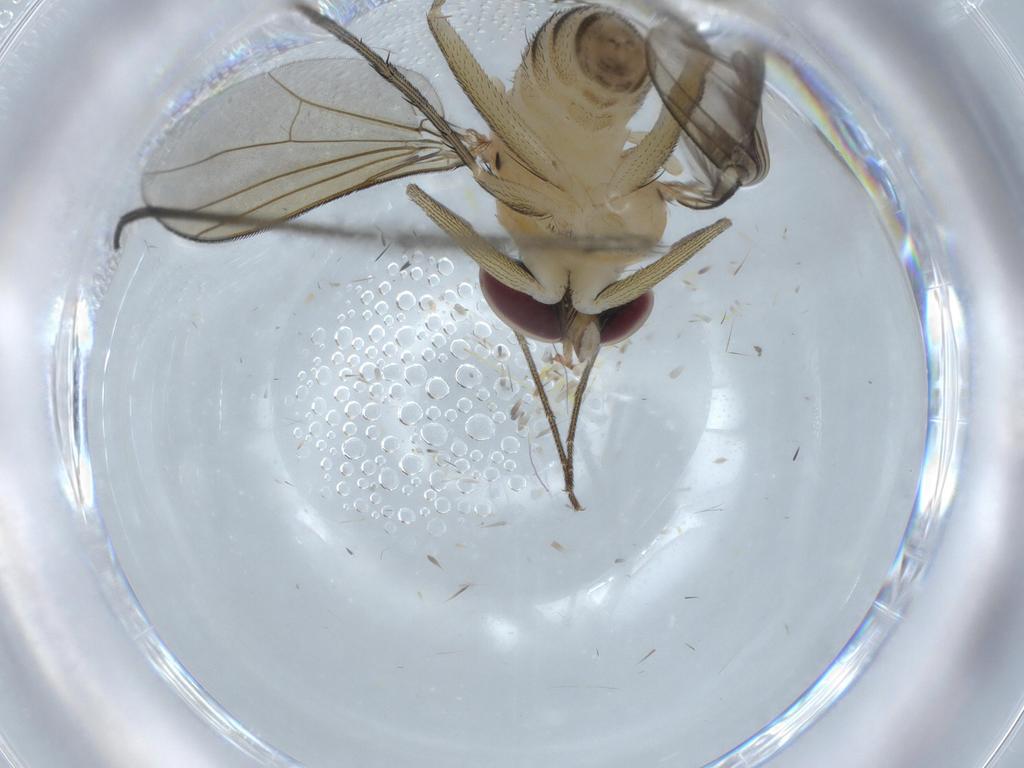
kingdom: Animalia
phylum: Arthropoda
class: Insecta
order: Diptera
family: Dolichopodidae
